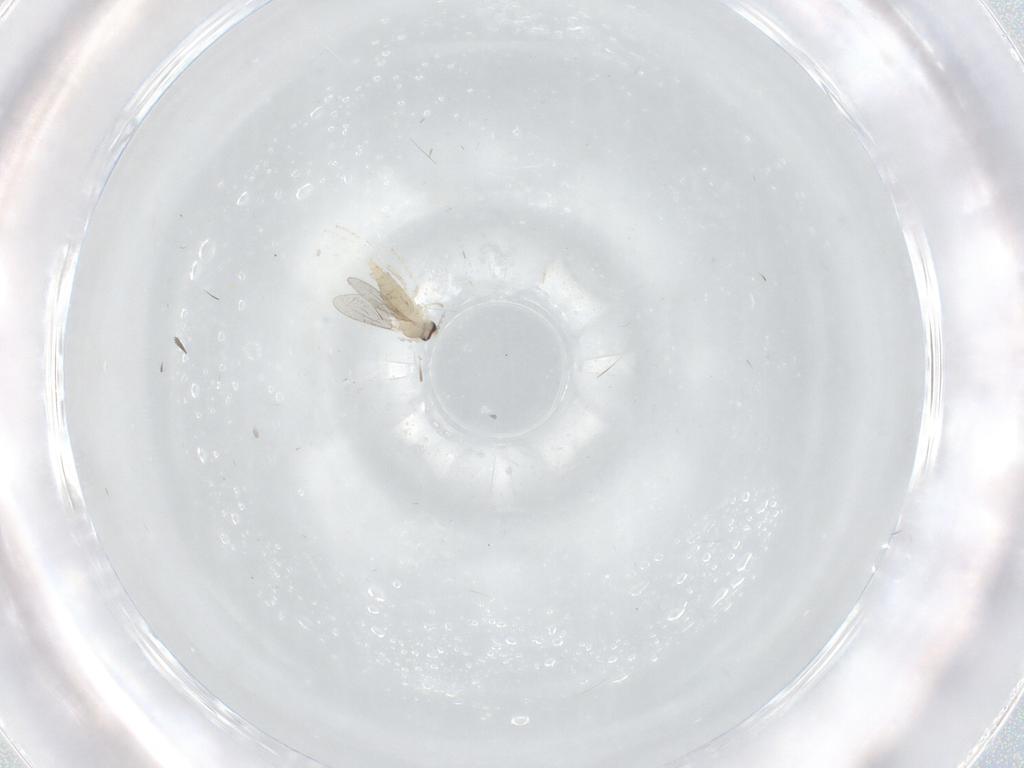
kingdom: Animalia
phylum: Arthropoda
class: Insecta
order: Diptera
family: Cecidomyiidae
